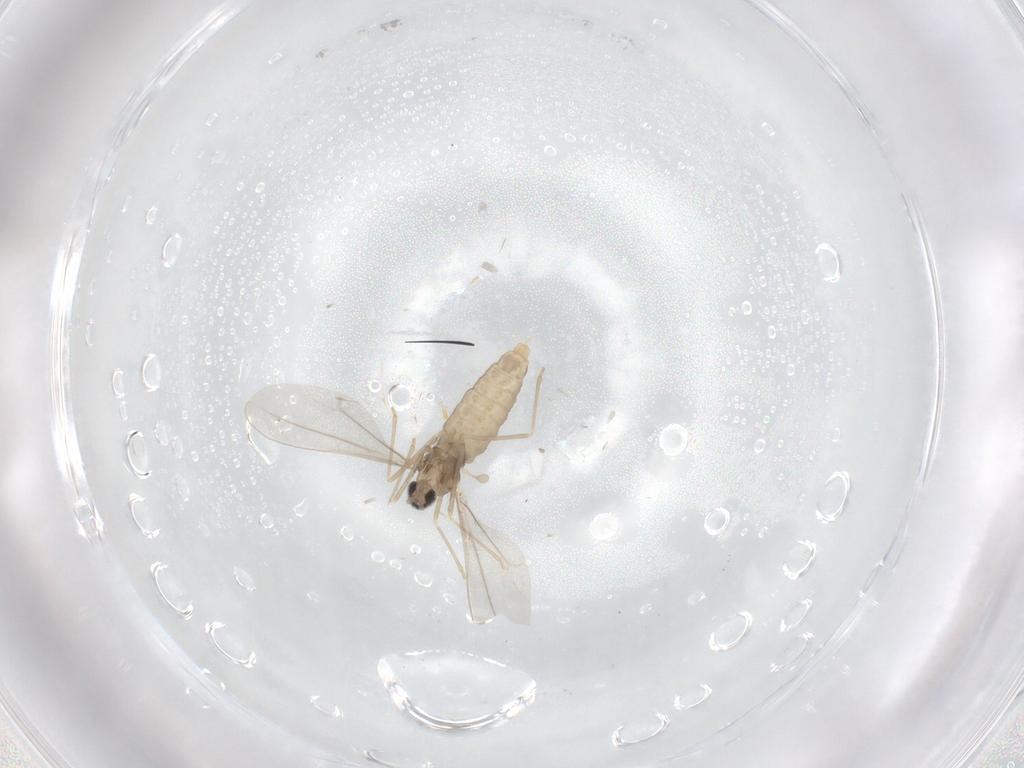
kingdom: Animalia
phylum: Arthropoda
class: Insecta
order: Diptera
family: Cecidomyiidae
